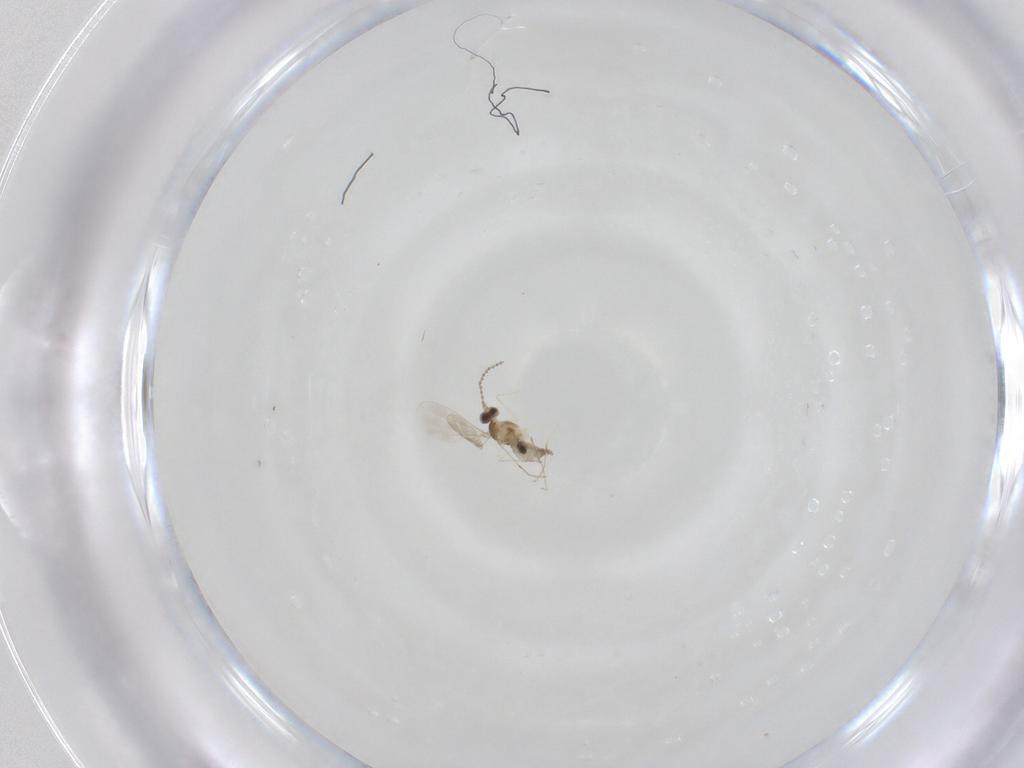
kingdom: Animalia
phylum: Arthropoda
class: Insecta
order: Diptera
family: Cecidomyiidae
